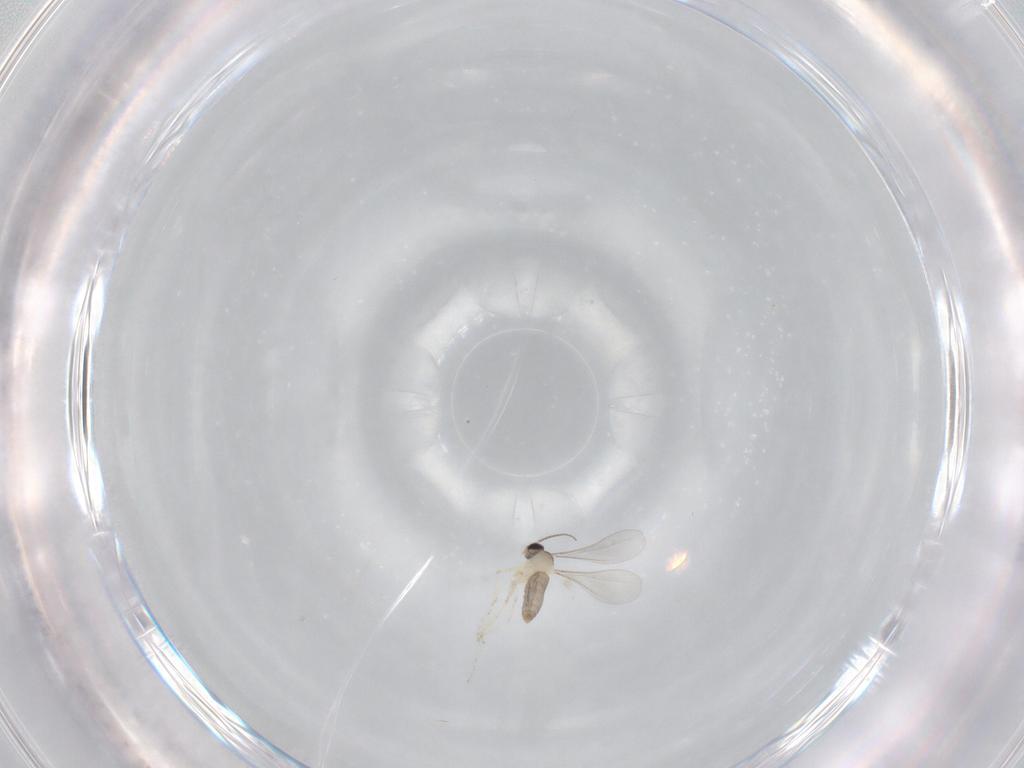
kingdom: Animalia
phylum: Arthropoda
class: Insecta
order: Diptera
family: Cecidomyiidae
